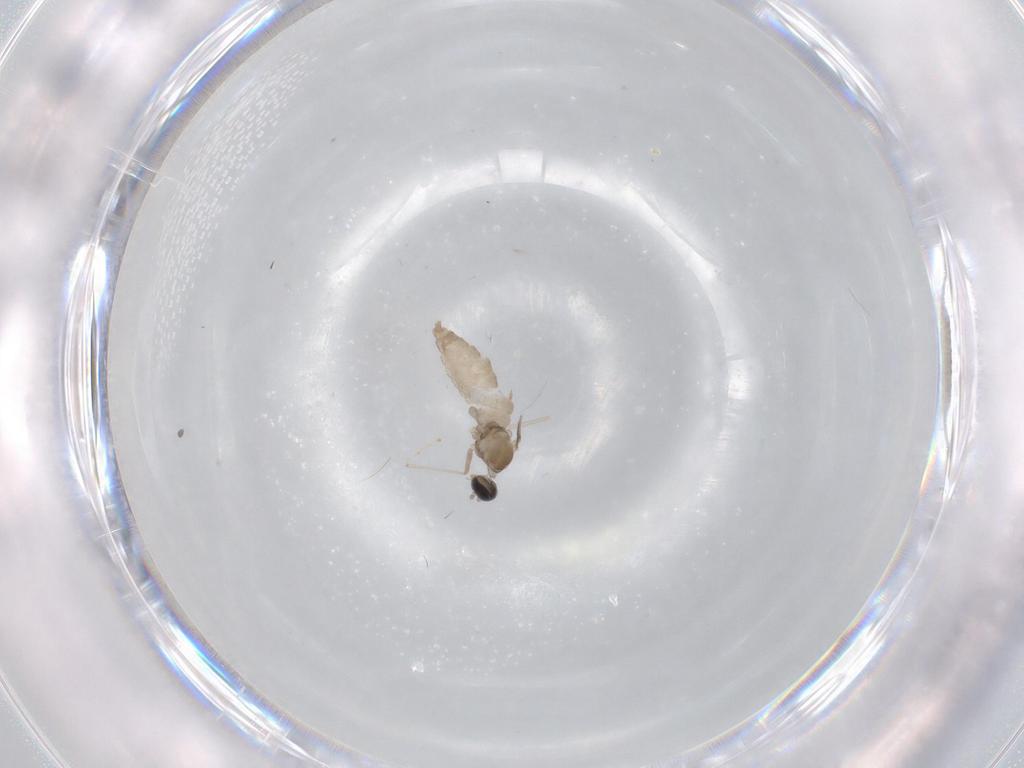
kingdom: Animalia
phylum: Arthropoda
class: Insecta
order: Diptera
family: Cecidomyiidae
